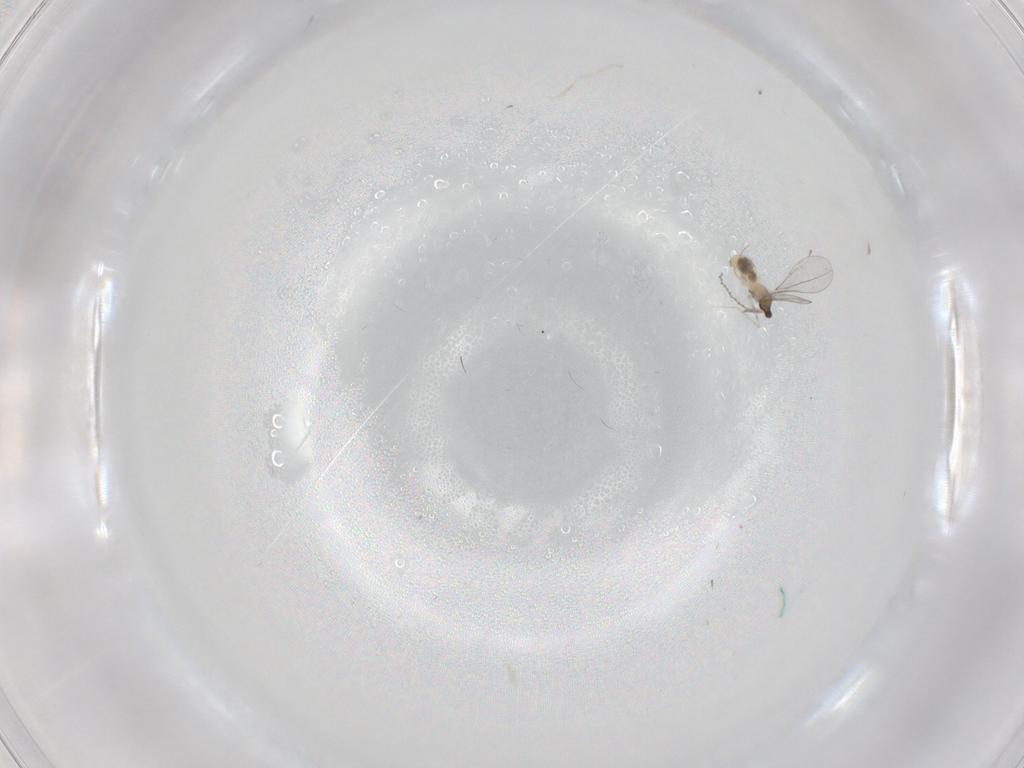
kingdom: Animalia
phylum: Arthropoda
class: Insecta
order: Diptera
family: Cecidomyiidae
